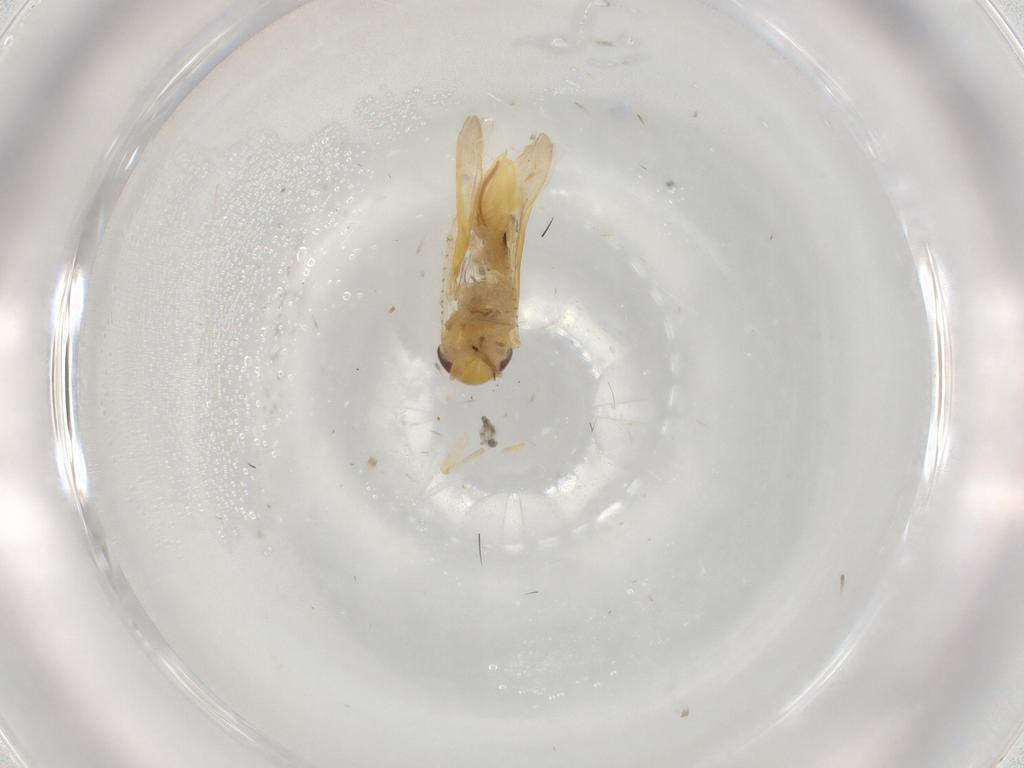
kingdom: Animalia
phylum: Arthropoda
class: Insecta
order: Hemiptera
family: Cicadellidae
